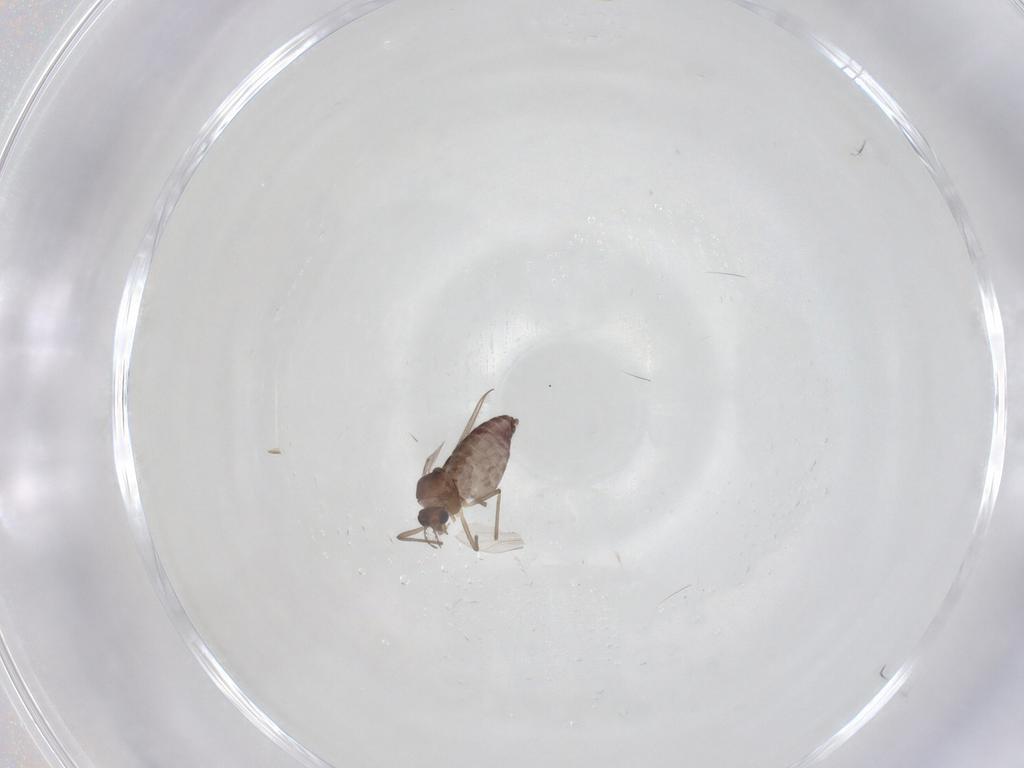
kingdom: Animalia
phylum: Arthropoda
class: Insecta
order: Diptera
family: Chironomidae
